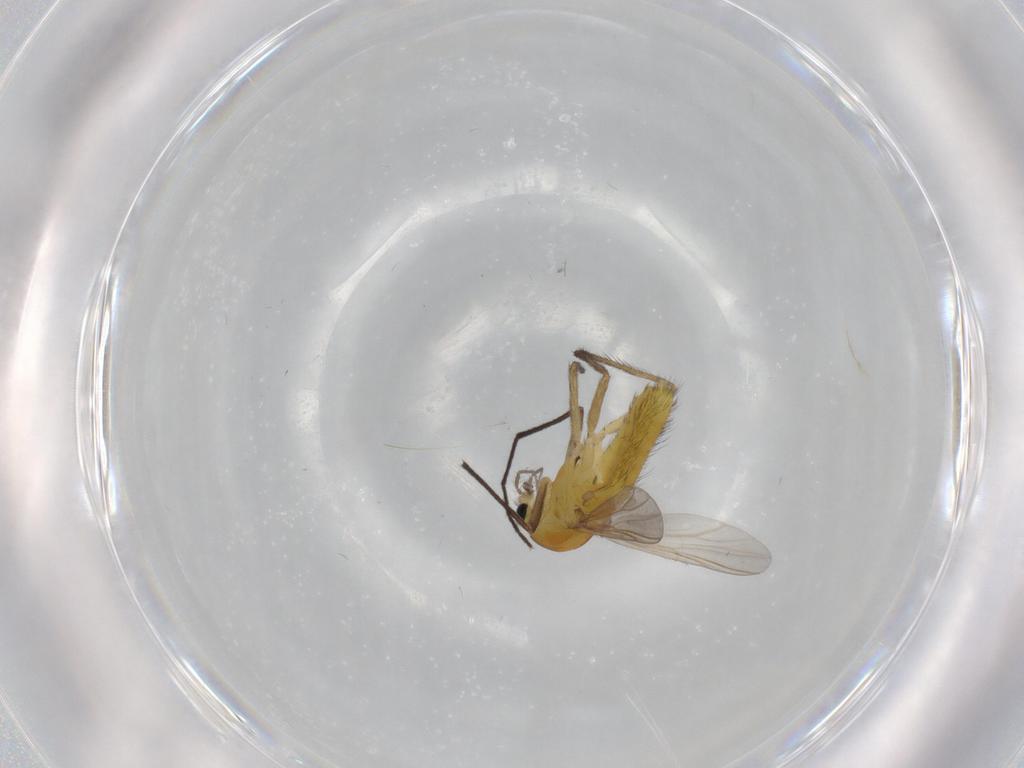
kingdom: Animalia
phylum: Arthropoda
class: Insecta
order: Diptera
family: Chironomidae
